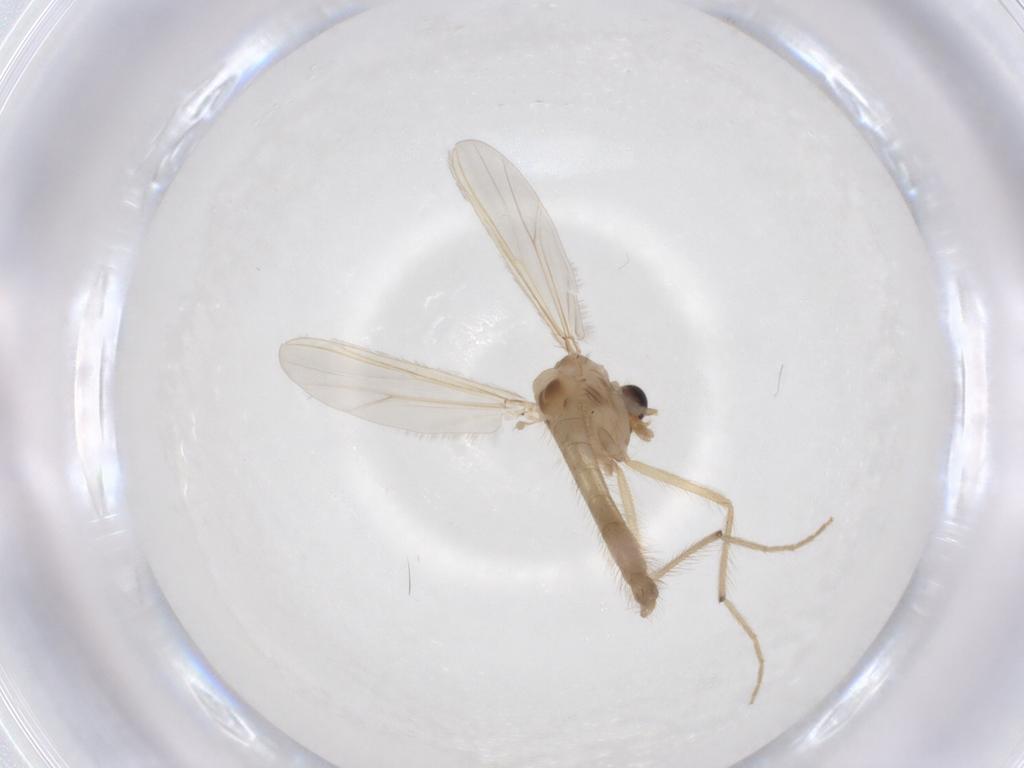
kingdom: Animalia
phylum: Arthropoda
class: Insecta
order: Diptera
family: Chironomidae
